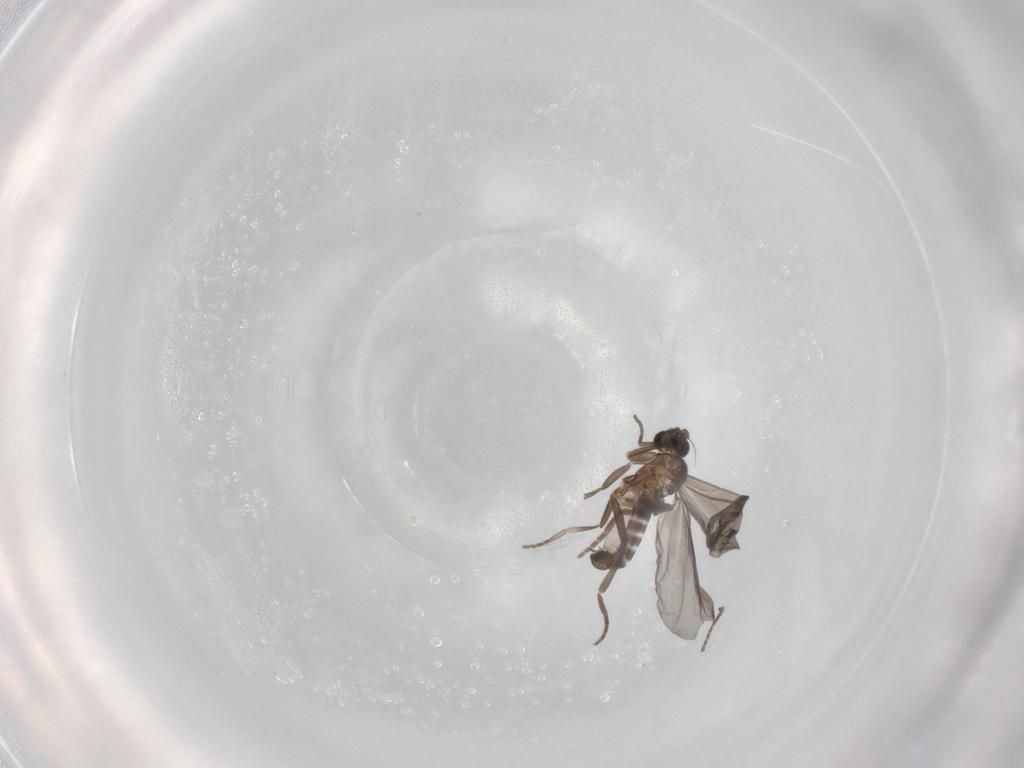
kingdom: Animalia
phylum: Arthropoda
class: Insecta
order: Diptera
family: Phoridae
